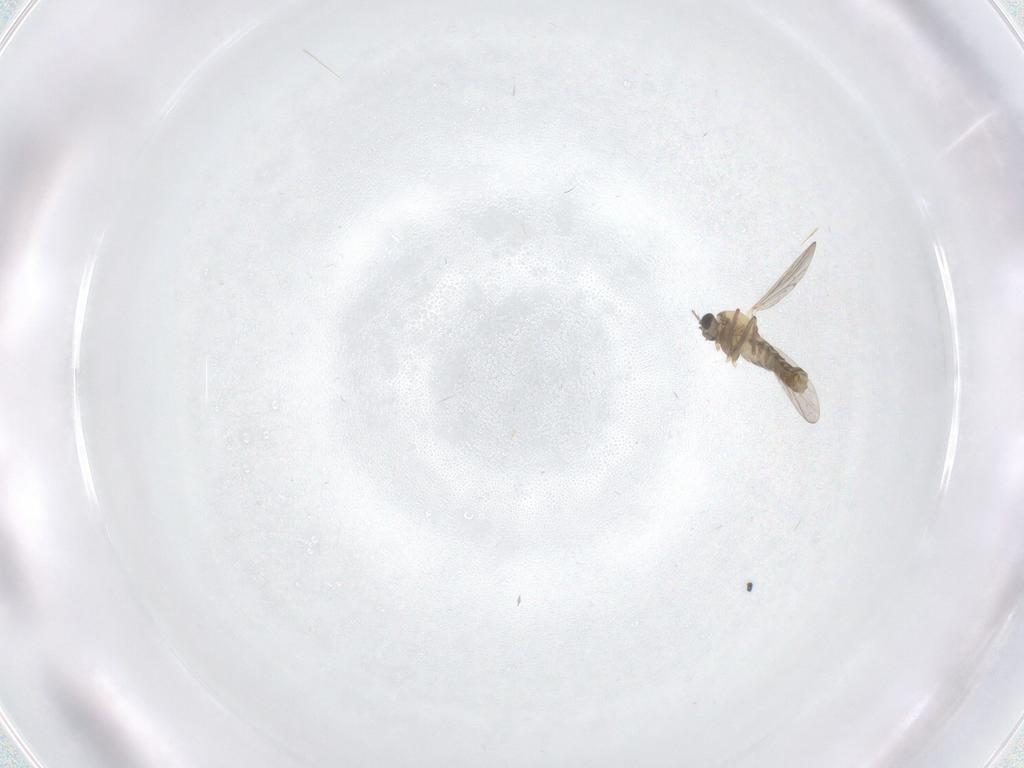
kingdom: Animalia
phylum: Arthropoda
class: Insecta
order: Diptera
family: Chironomidae
